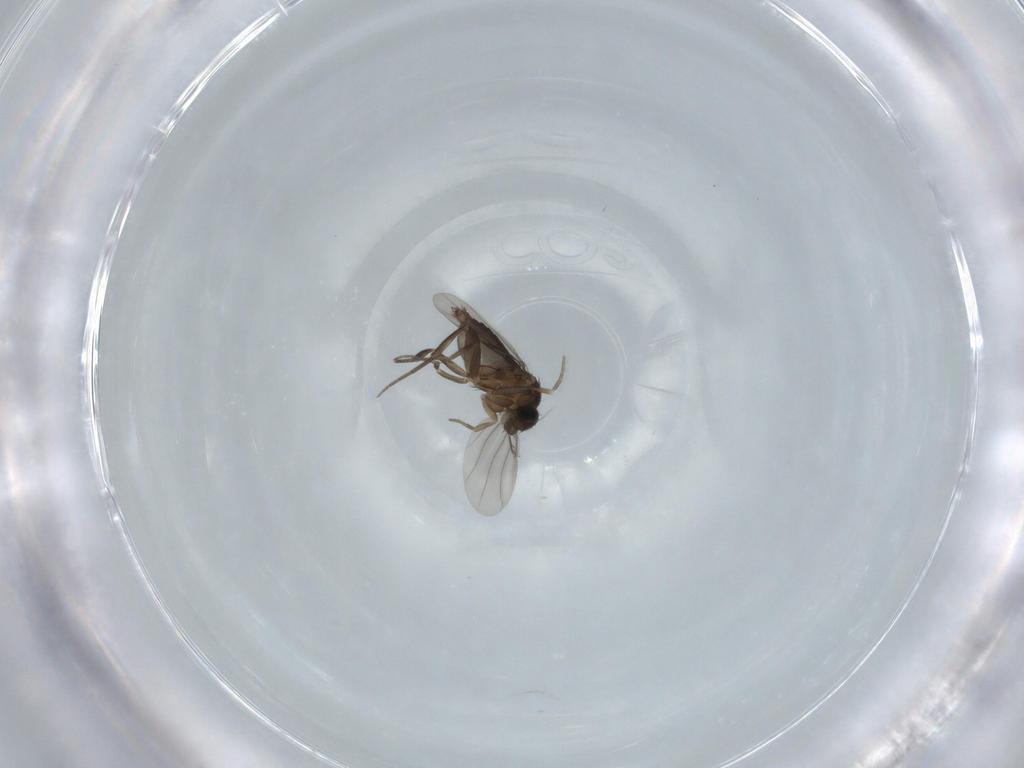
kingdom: Animalia
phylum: Arthropoda
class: Insecta
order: Diptera
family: Phoridae
